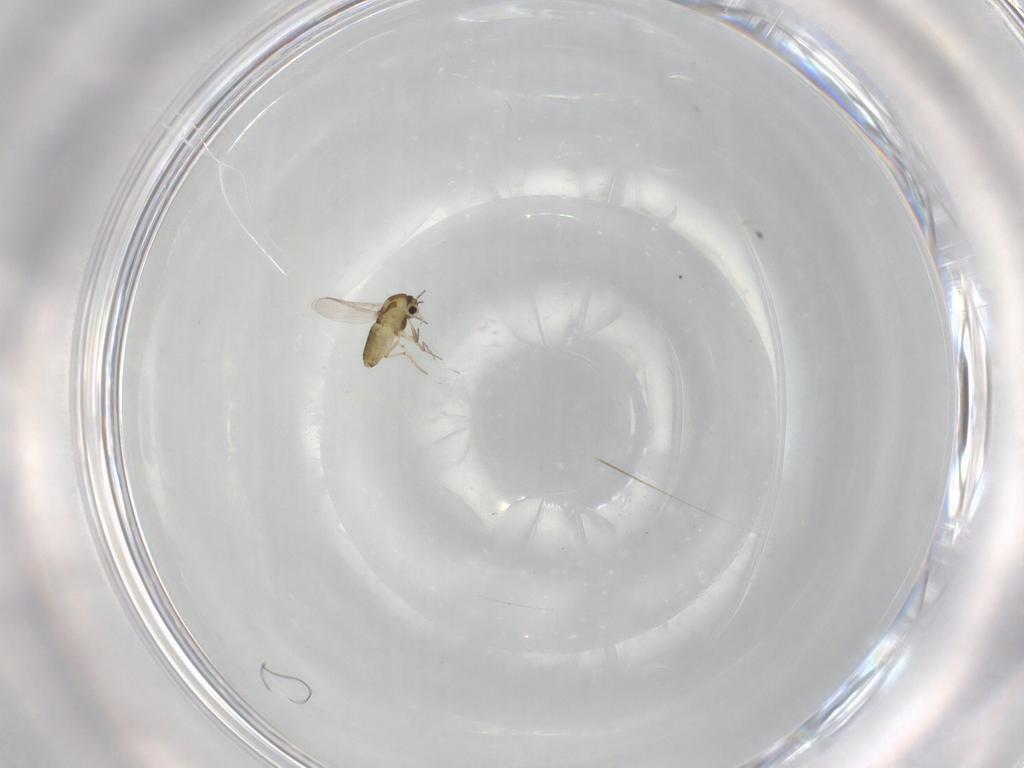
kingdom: Animalia
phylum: Arthropoda
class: Insecta
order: Diptera
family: Chironomidae
